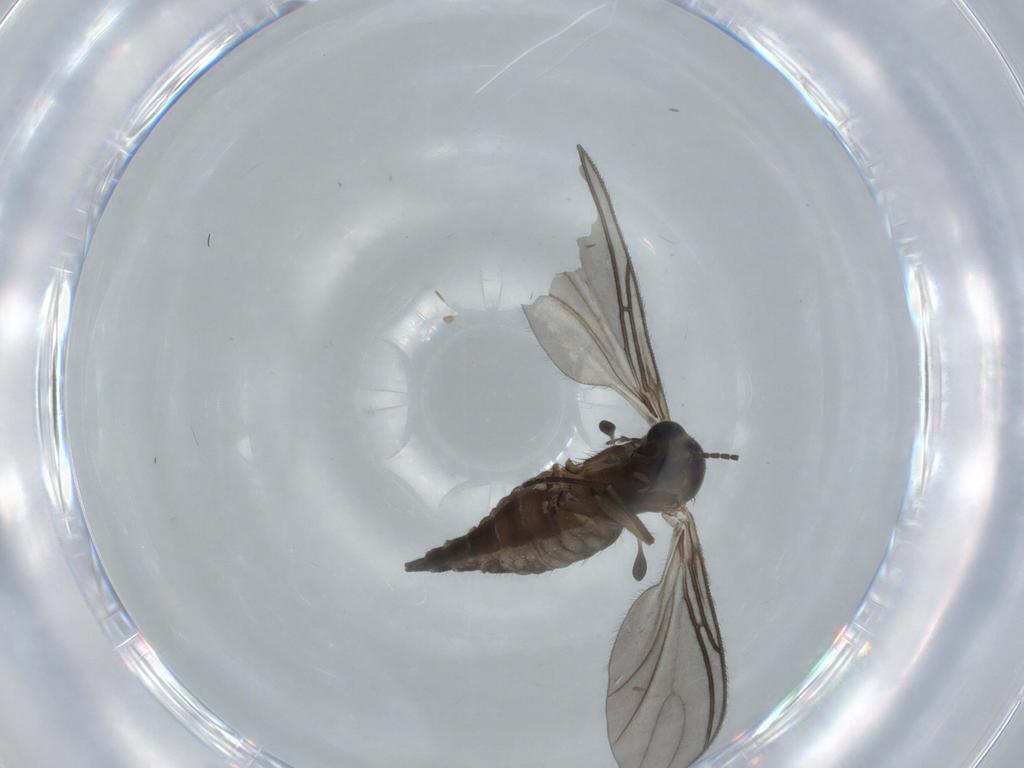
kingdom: Animalia
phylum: Arthropoda
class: Insecta
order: Diptera
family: Sciaridae
